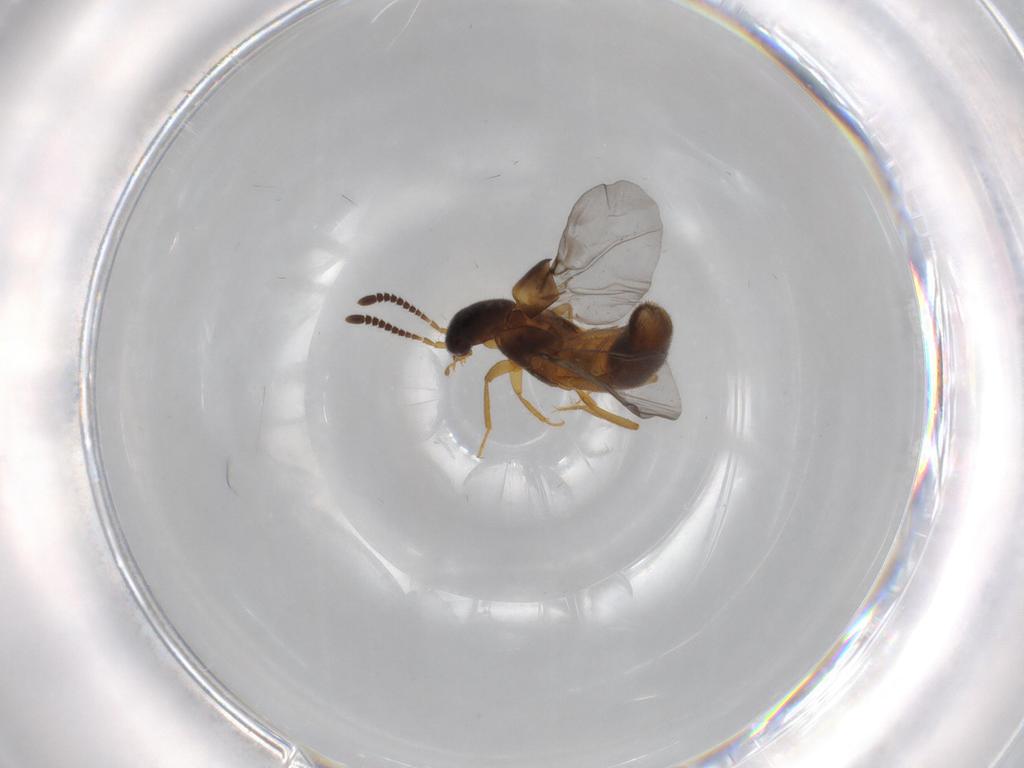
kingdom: Animalia
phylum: Arthropoda
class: Insecta
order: Coleoptera
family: Staphylinidae
